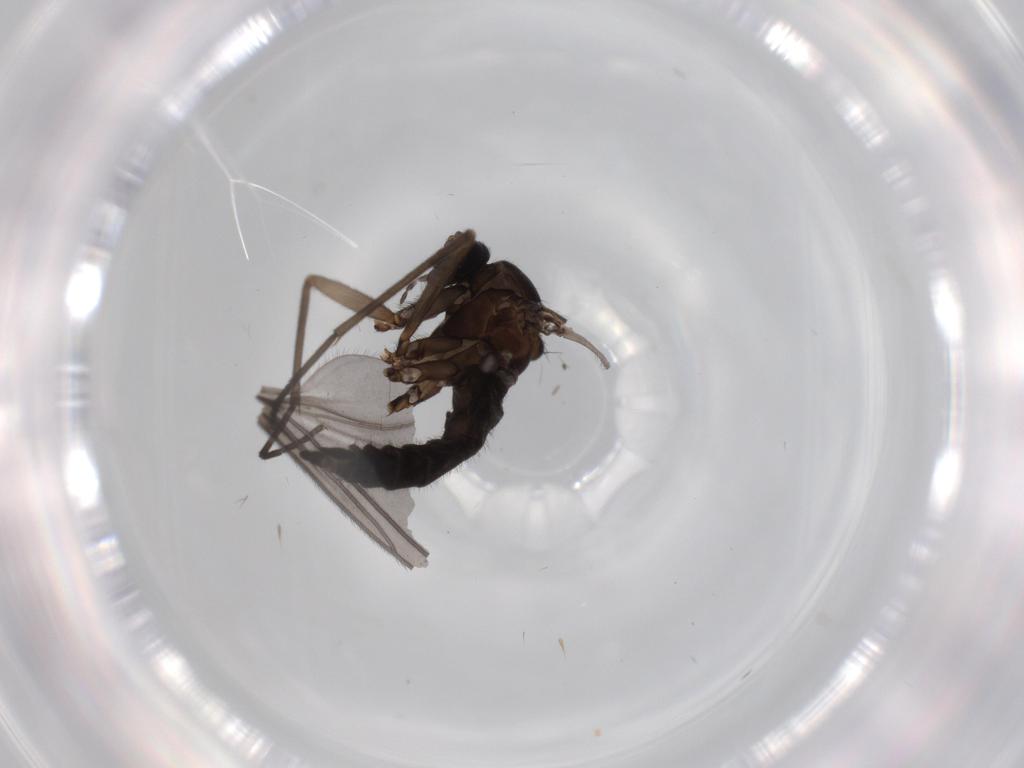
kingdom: Animalia
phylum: Arthropoda
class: Insecta
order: Diptera
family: Sciaridae
